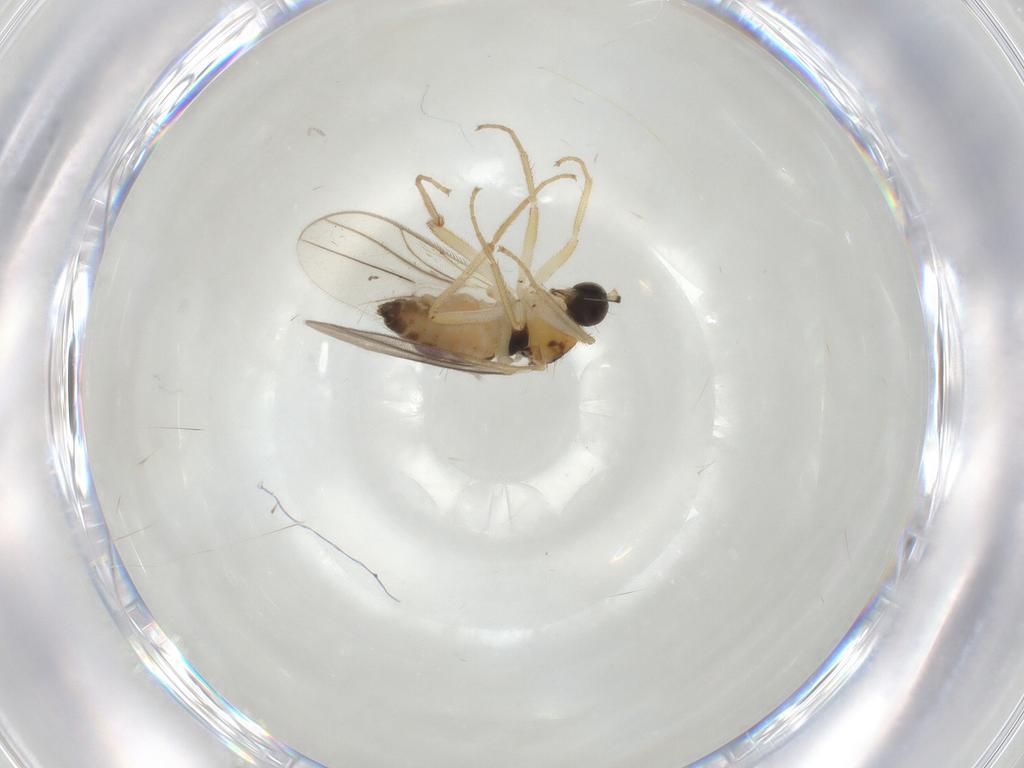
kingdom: Animalia
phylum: Arthropoda
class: Insecta
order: Diptera
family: Hybotidae
